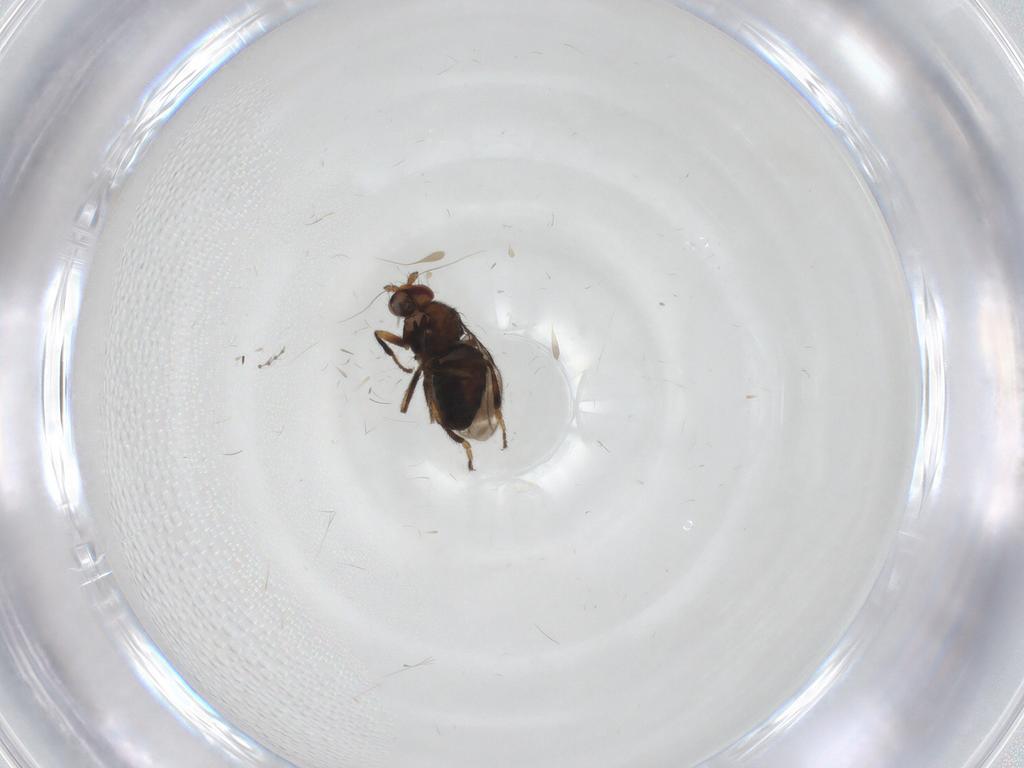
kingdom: Animalia
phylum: Arthropoda
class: Insecta
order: Diptera
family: Sphaeroceridae
